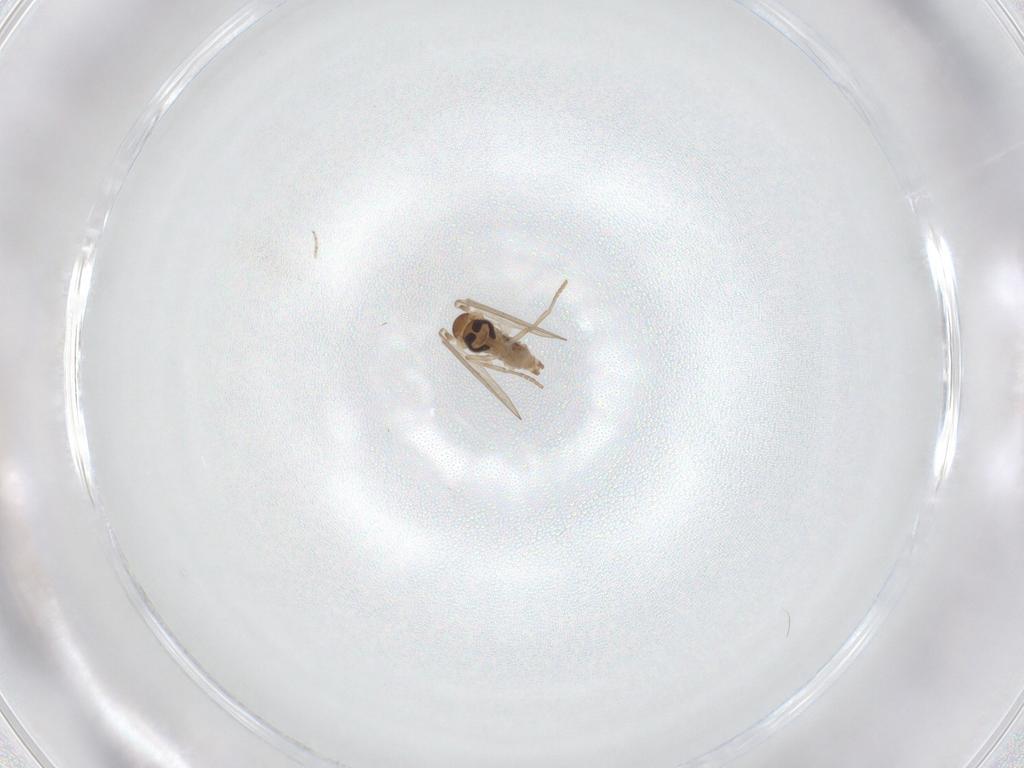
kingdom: Animalia
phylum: Arthropoda
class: Insecta
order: Diptera
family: Psychodidae
